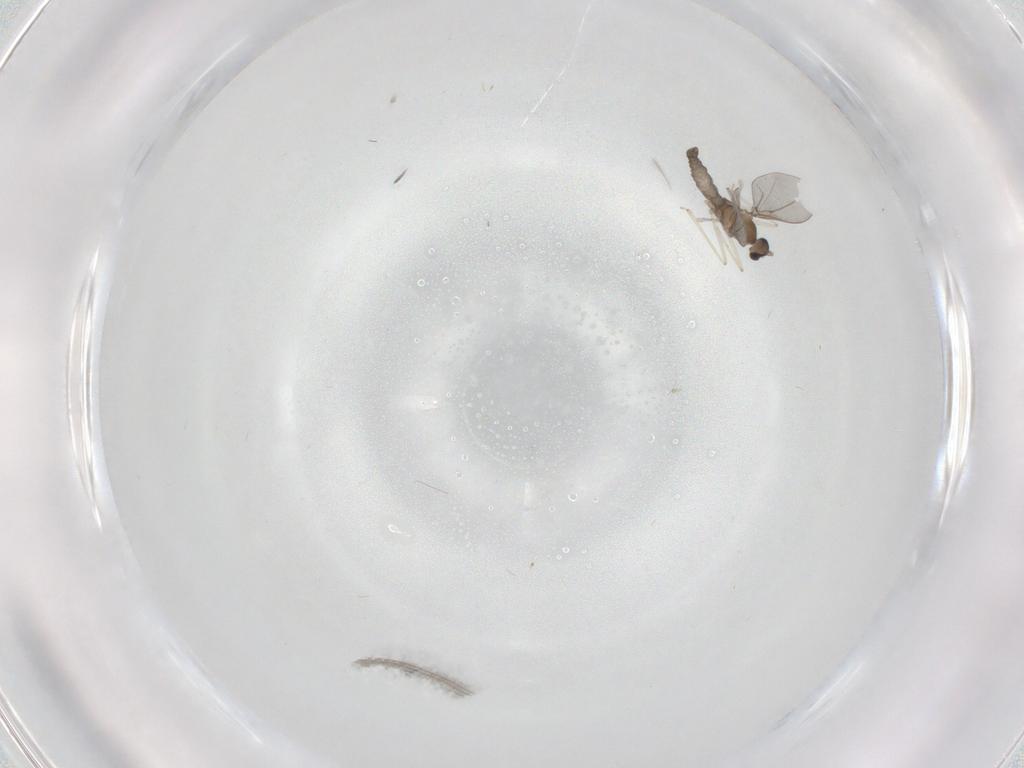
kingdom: Animalia
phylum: Arthropoda
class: Insecta
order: Diptera
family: Cecidomyiidae
